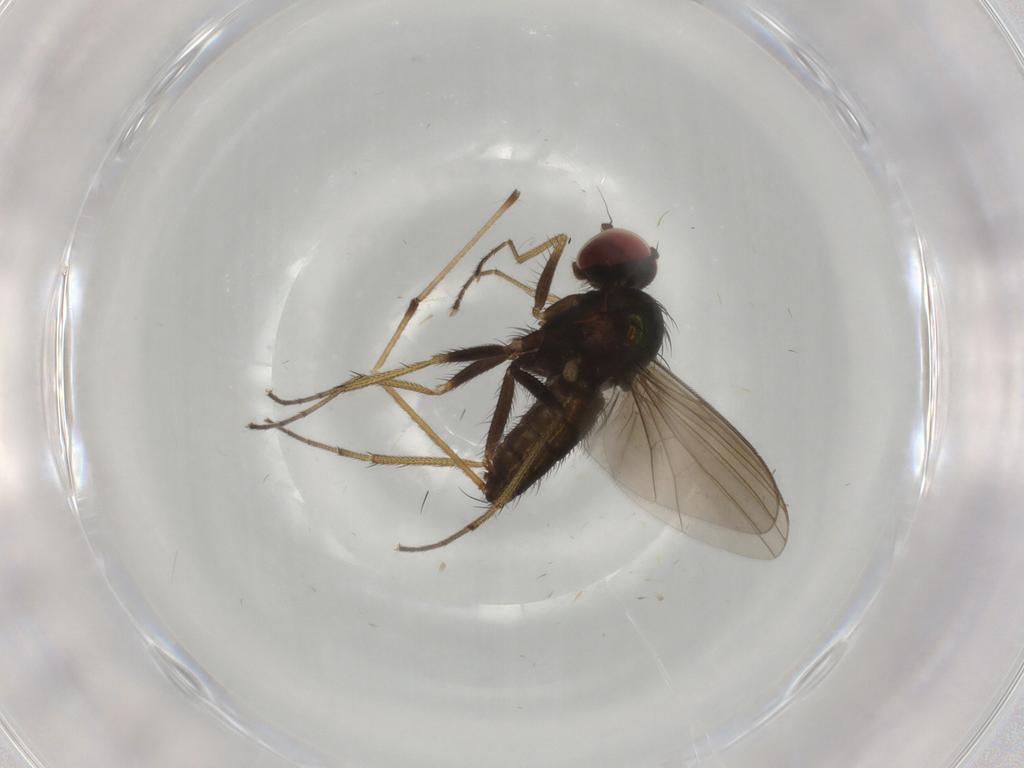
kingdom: Animalia
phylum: Arthropoda
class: Insecta
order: Diptera
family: Dolichopodidae
